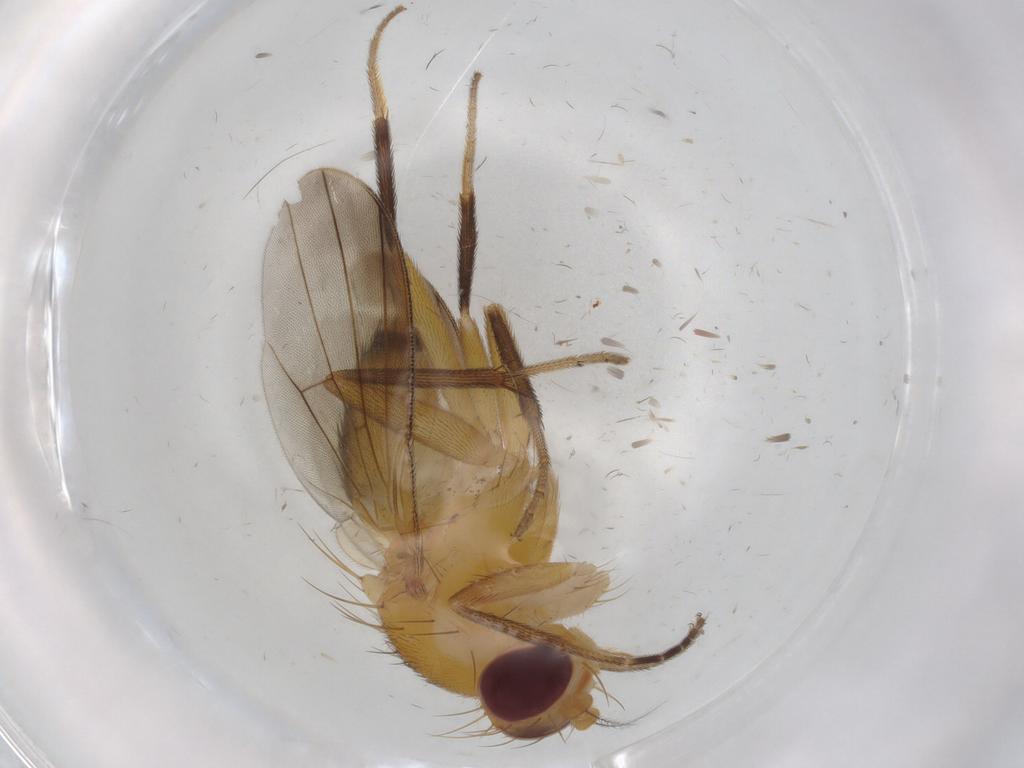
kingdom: Animalia
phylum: Arthropoda
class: Insecta
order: Diptera
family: Clusiidae
